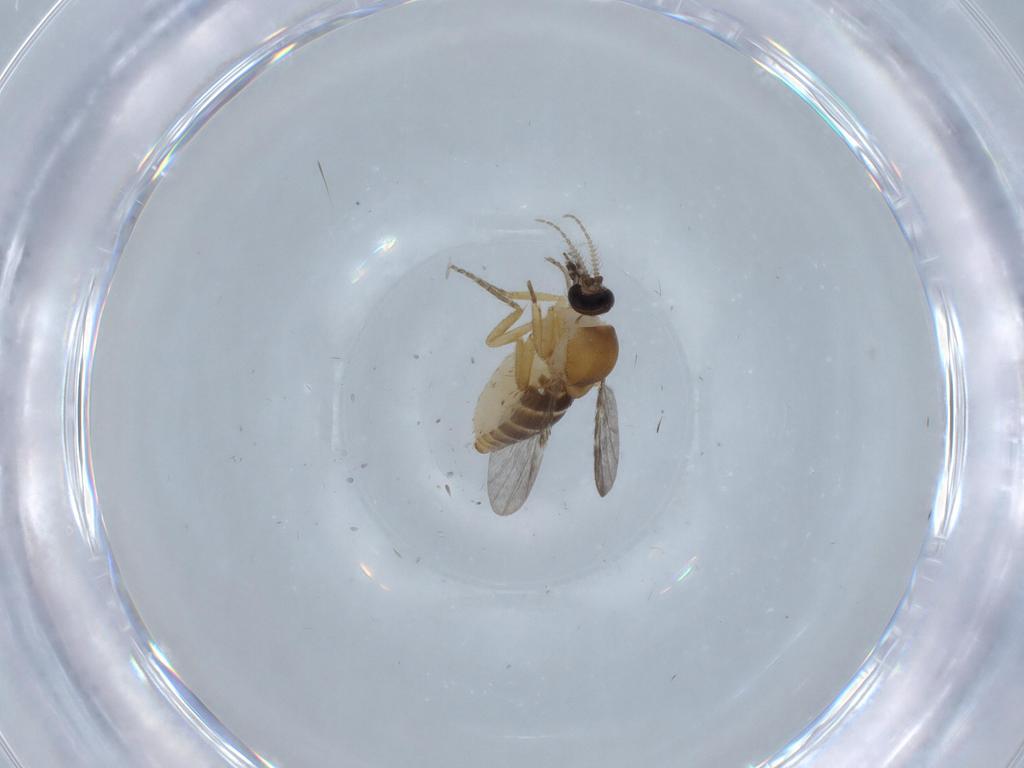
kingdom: Animalia
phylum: Arthropoda
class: Insecta
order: Diptera
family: Ceratopogonidae
